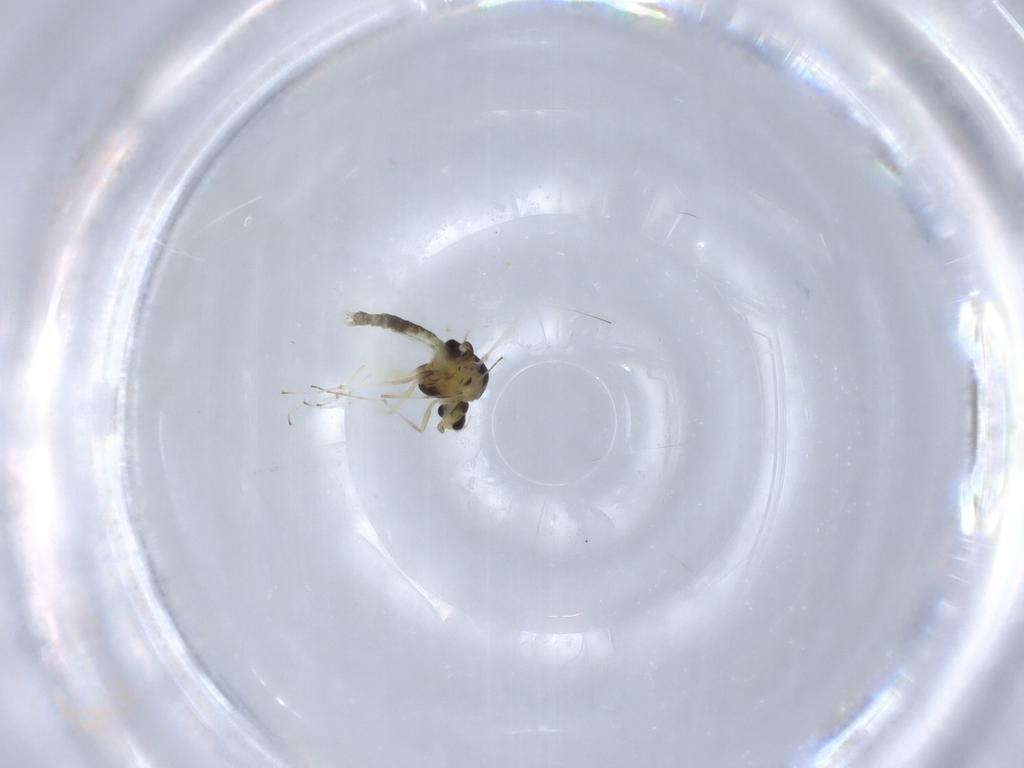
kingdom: Animalia
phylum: Arthropoda
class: Insecta
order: Diptera
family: Chironomidae
